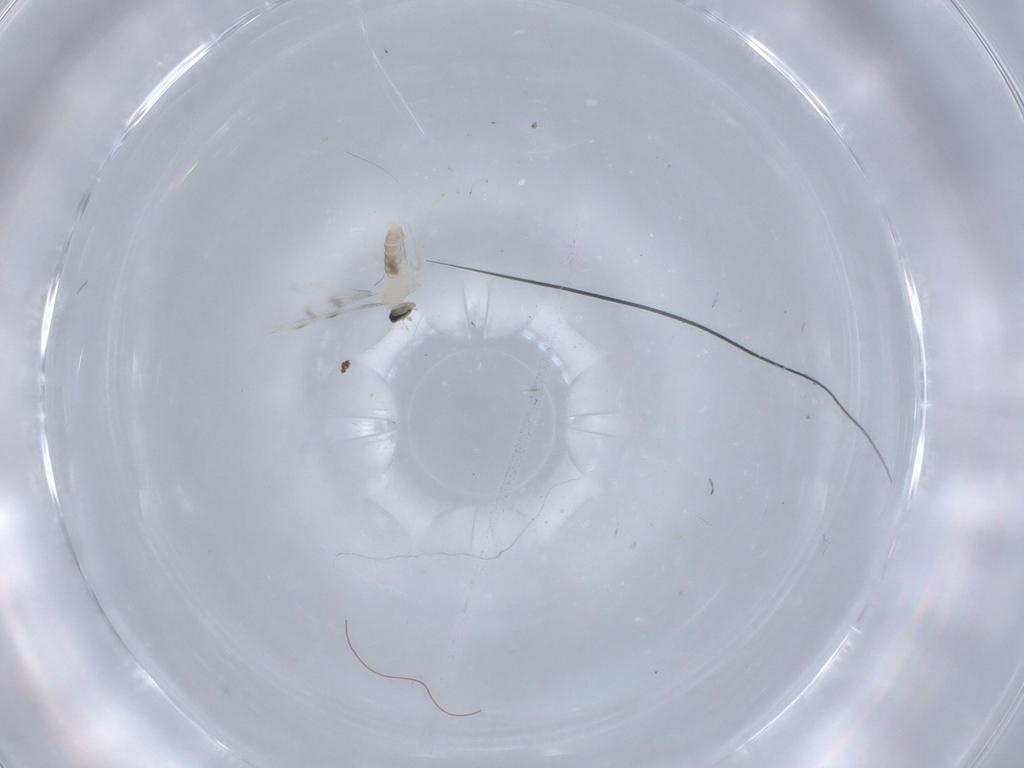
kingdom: Animalia
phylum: Arthropoda
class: Insecta
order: Diptera
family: Cecidomyiidae
